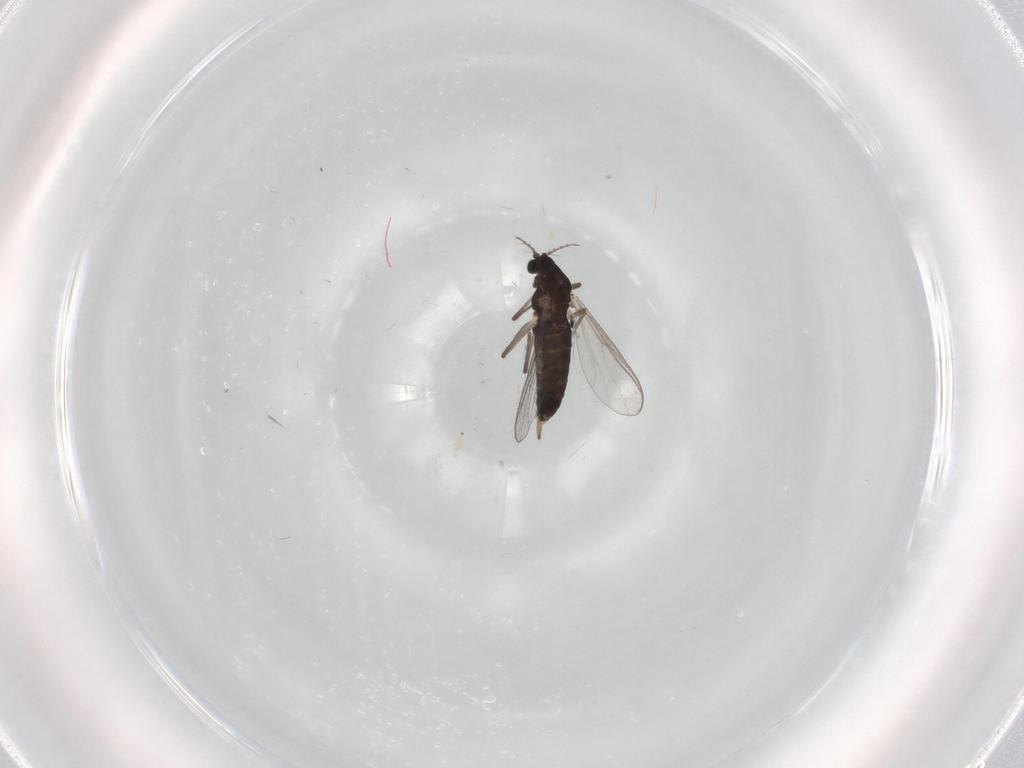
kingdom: Animalia
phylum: Arthropoda
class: Insecta
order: Diptera
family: Chironomidae
